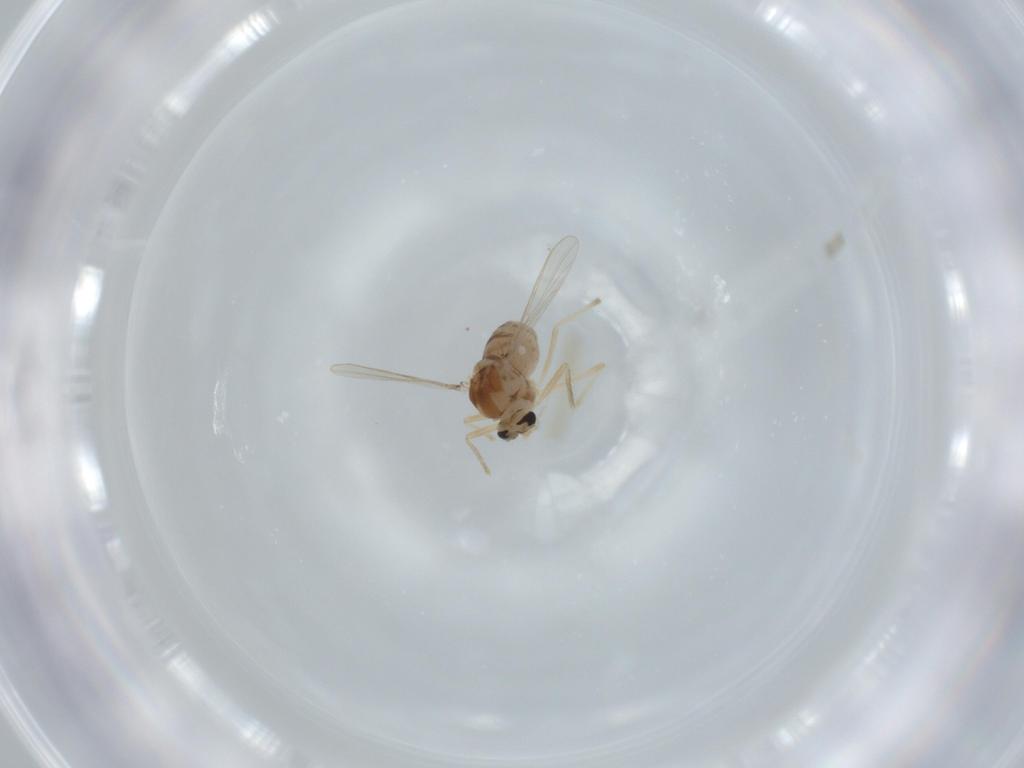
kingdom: Animalia
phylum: Arthropoda
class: Insecta
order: Diptera
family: Chironomidae
